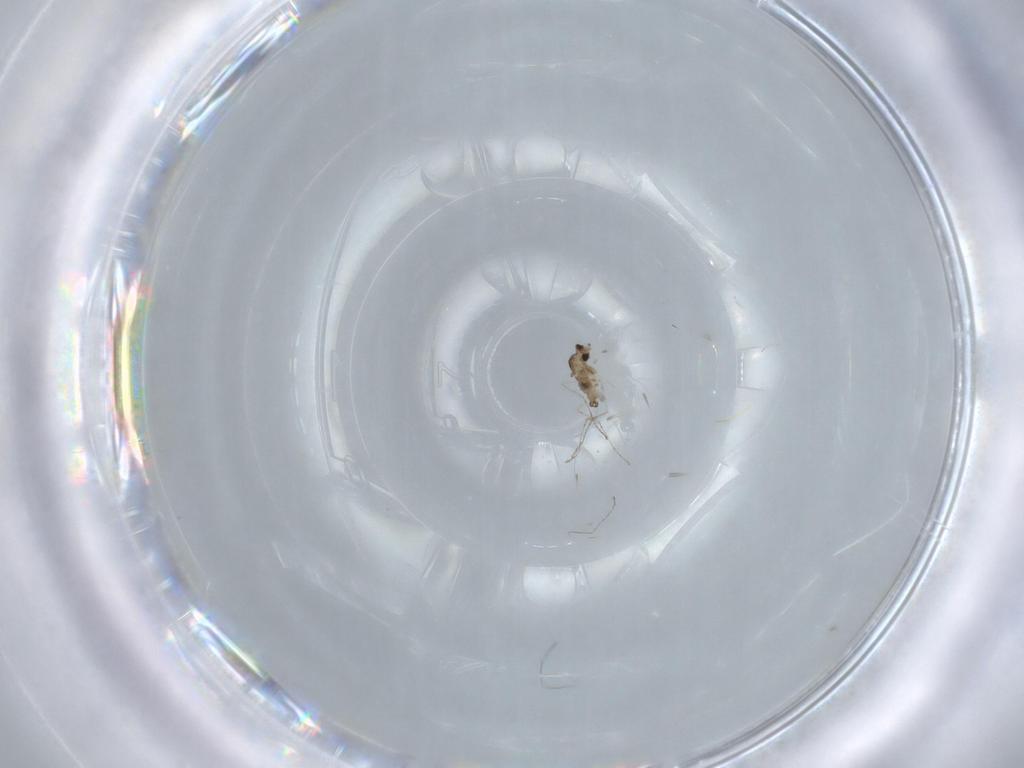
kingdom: Animalia
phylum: Arthropoda
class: Insecta
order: Diptera
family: Cecidomyiidae
